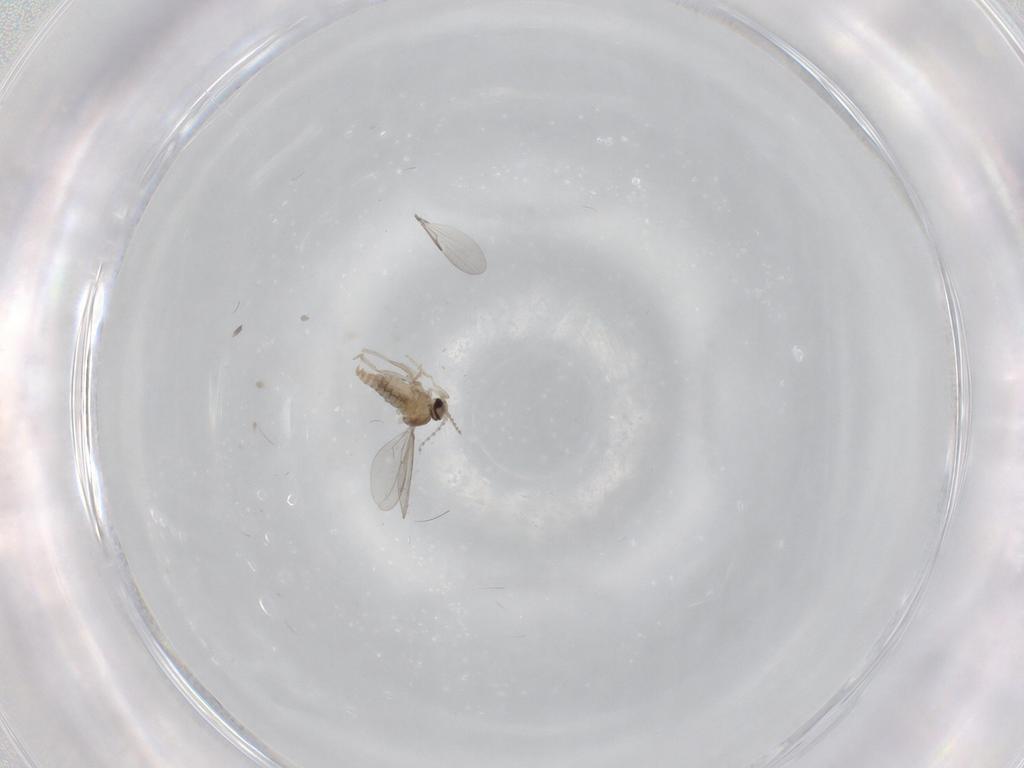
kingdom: Animalia
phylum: Arthropoda
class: Insecta
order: Diptera
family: Cecidomyiidae
